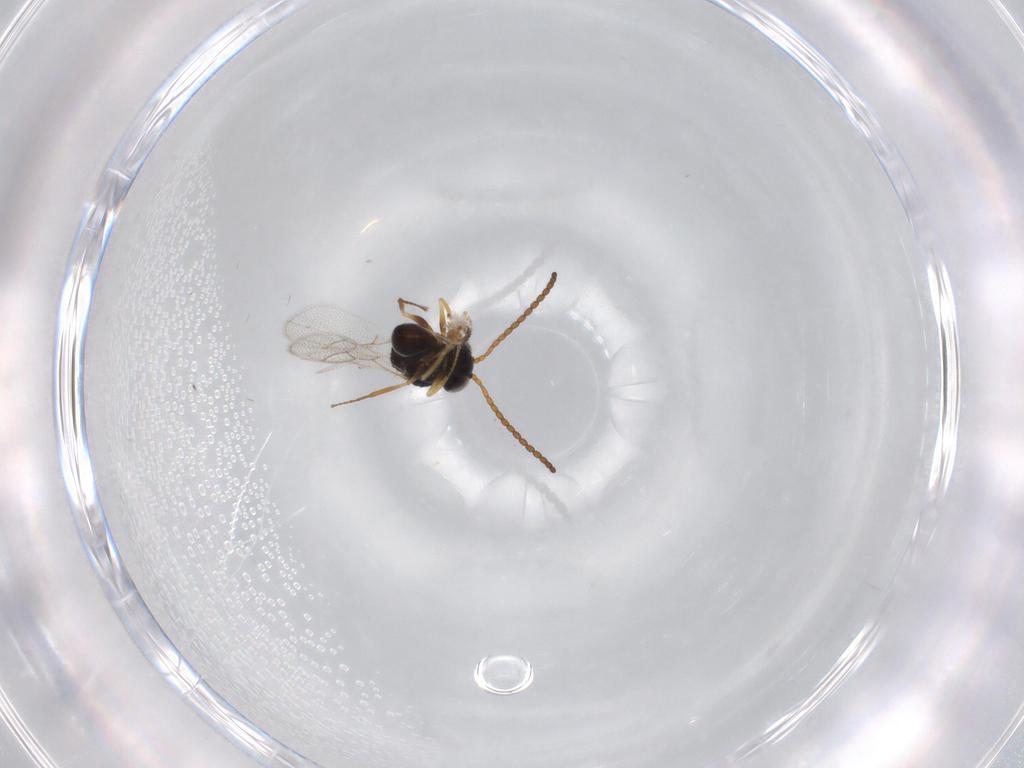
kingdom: Animalia
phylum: Arthropoda
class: Insecta
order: Hymenoptera
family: Figitidae
